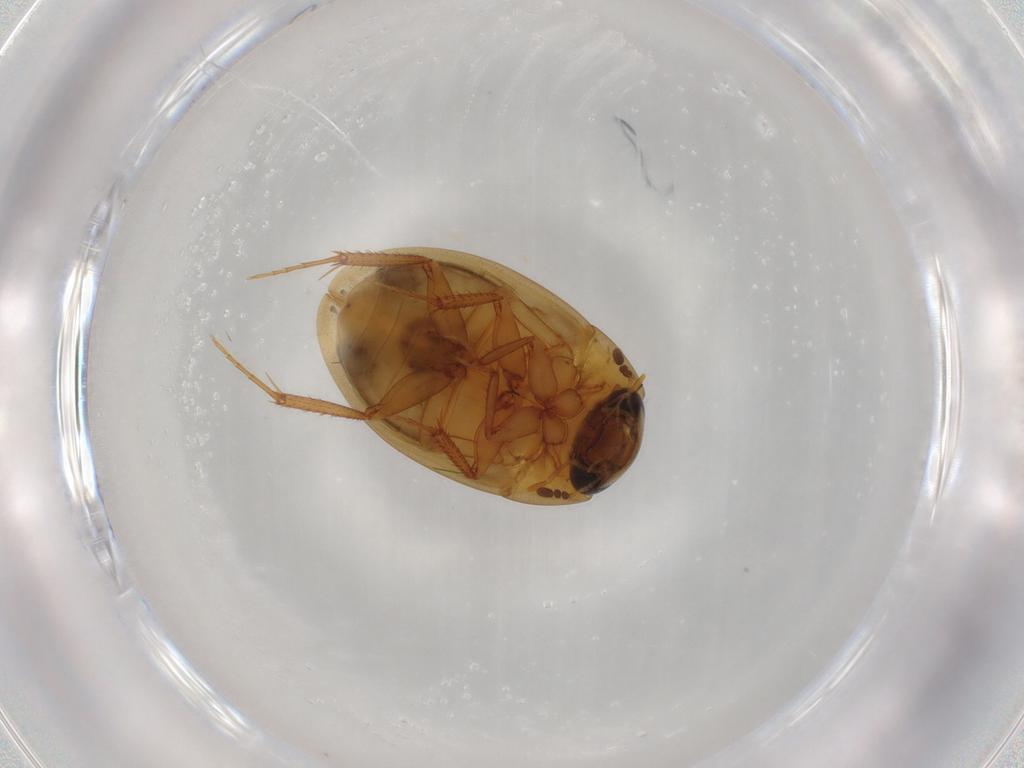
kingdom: Animalia
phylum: Arthropoda
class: Insecta
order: Coleoptera
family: Hydrophilidae
